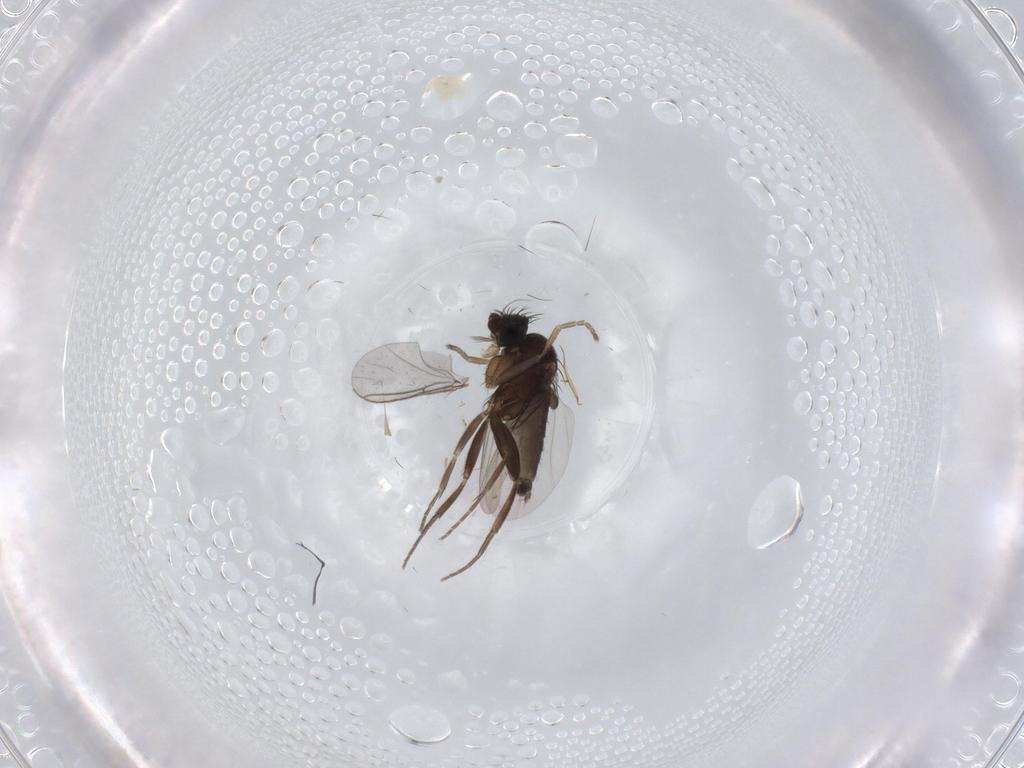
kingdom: Animalia
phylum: Arthropoda
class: Insecta
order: Diptera
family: Phoridae
